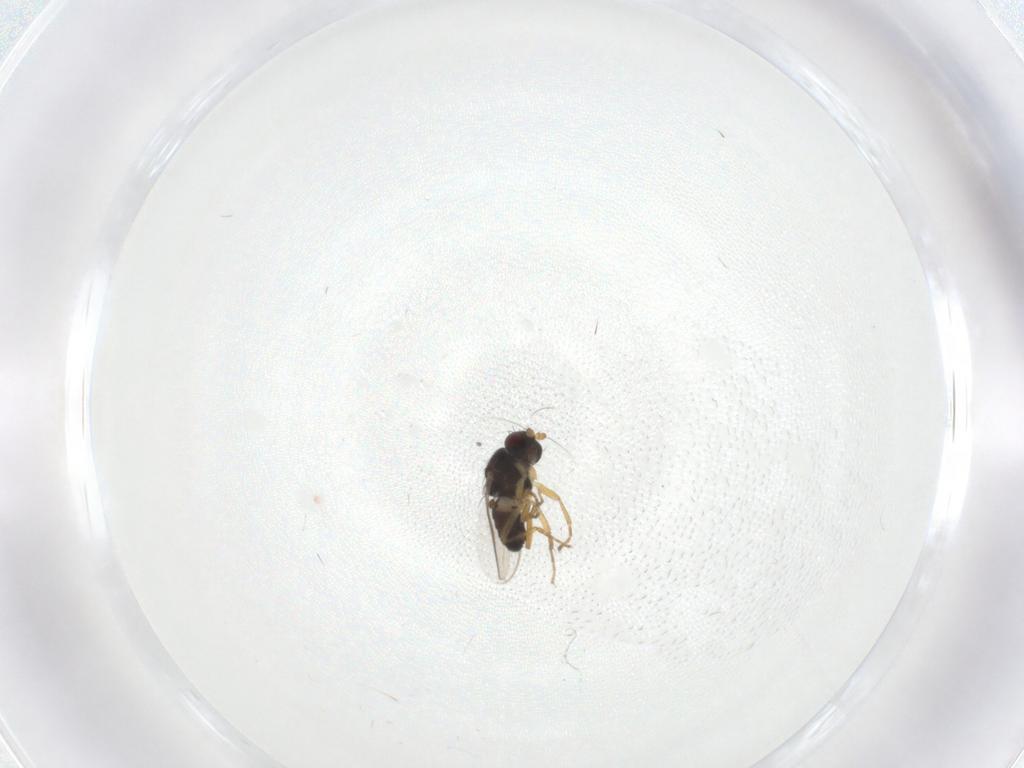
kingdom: Animalia
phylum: Arthropoda
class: Insecta
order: Diptera
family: Sphaeroceridae
